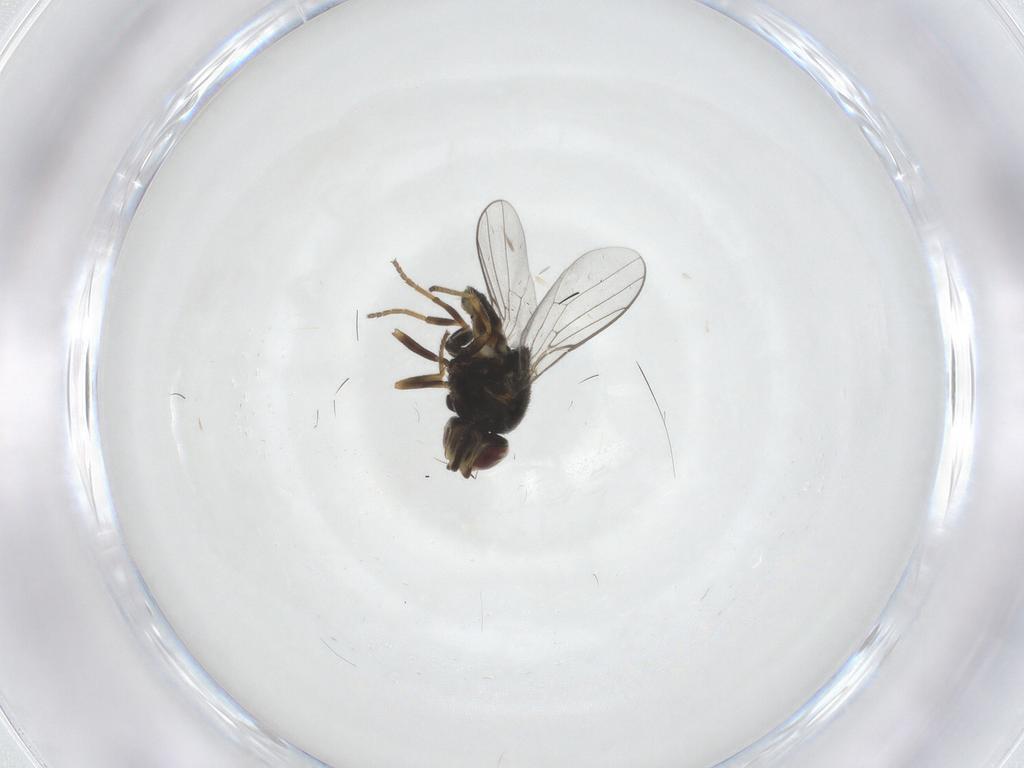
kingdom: Animalia
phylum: Arthropoda
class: Insecta
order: Diptera
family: Chloropidae
